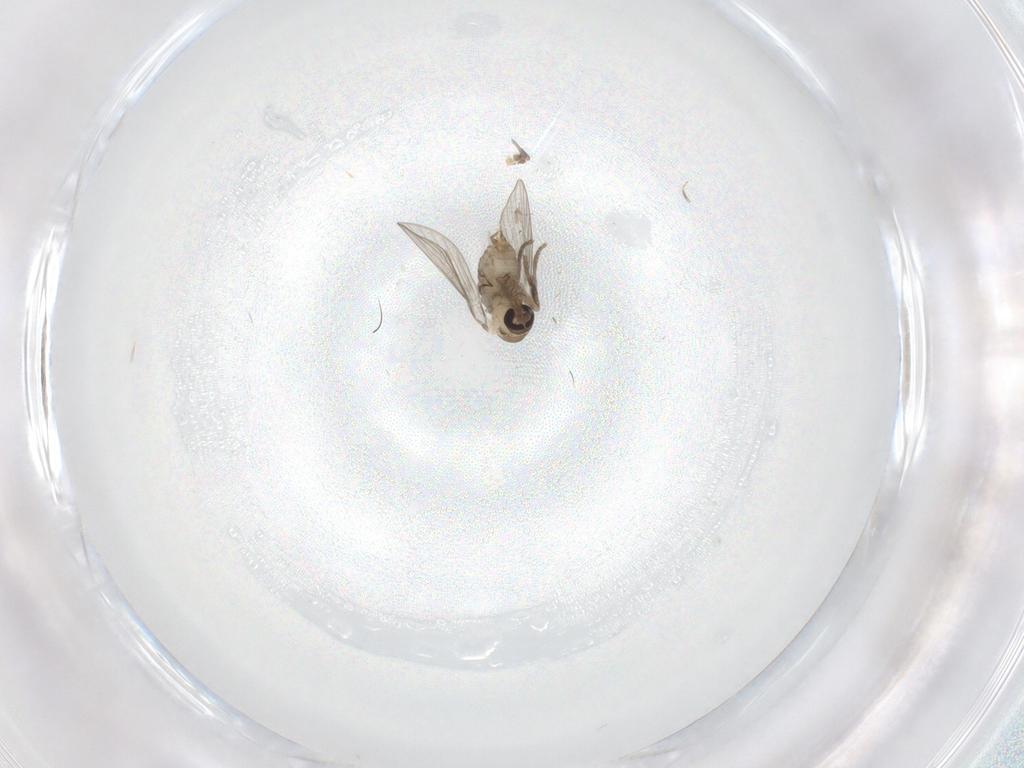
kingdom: Animalia
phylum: Arthropoda
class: Insecta
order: Diptera
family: Psychodidae
